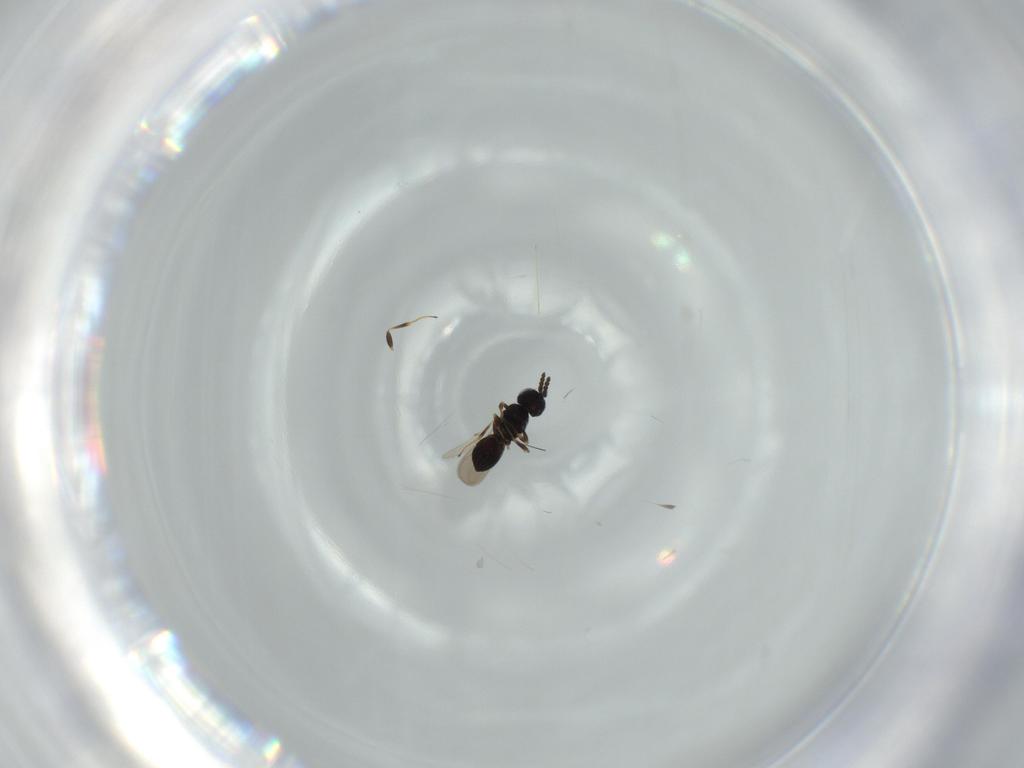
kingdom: Animalia
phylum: Arthropoda
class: Insecta
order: Hymenoptera
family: Scelionidae
